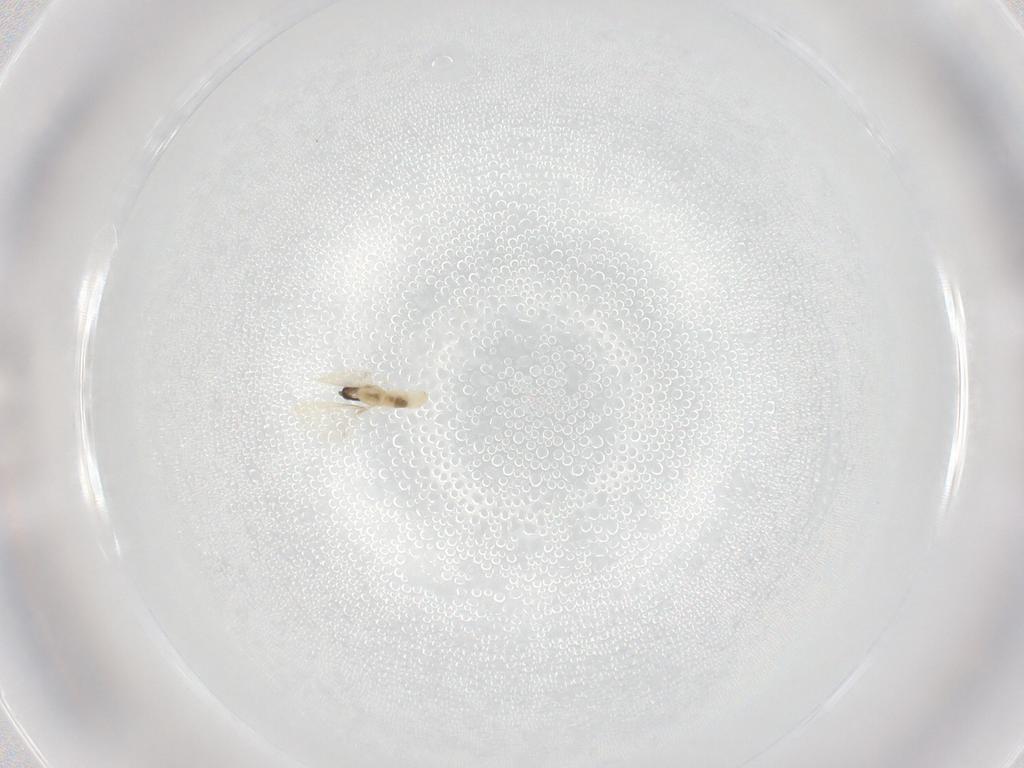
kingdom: Animalia
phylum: Arthropoda
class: Insecta
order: Diptera
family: Cecidomyiidae
